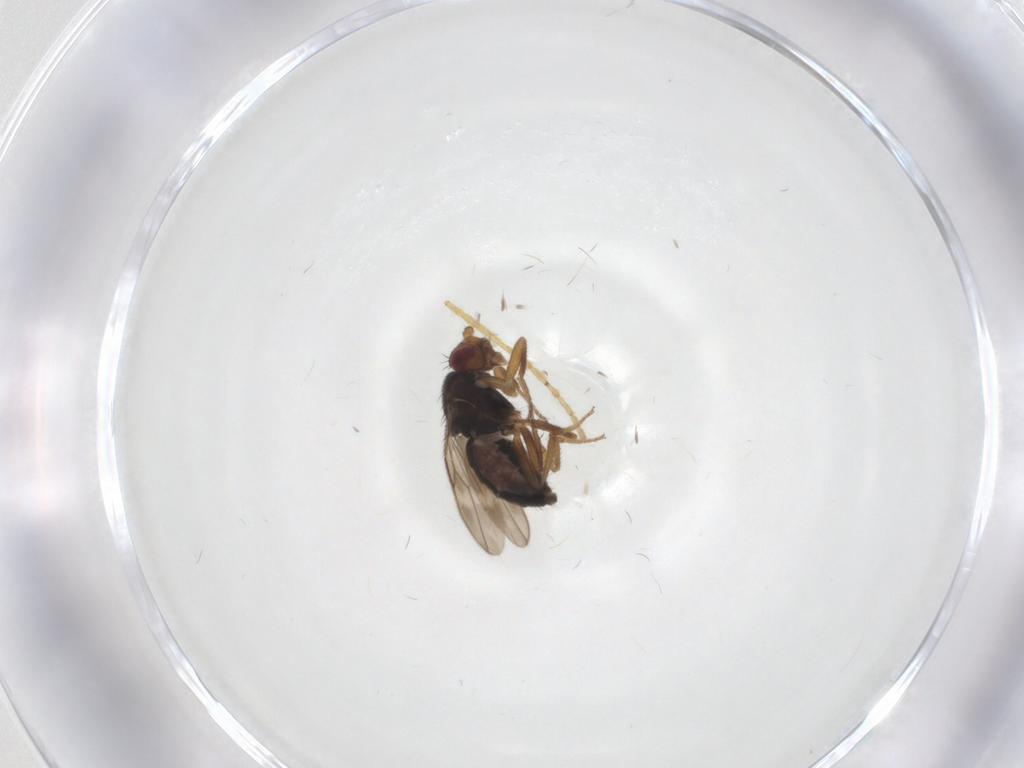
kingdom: Animalia
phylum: Arthropoda
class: Insecta
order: Diptera
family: Sphaeroceridae
